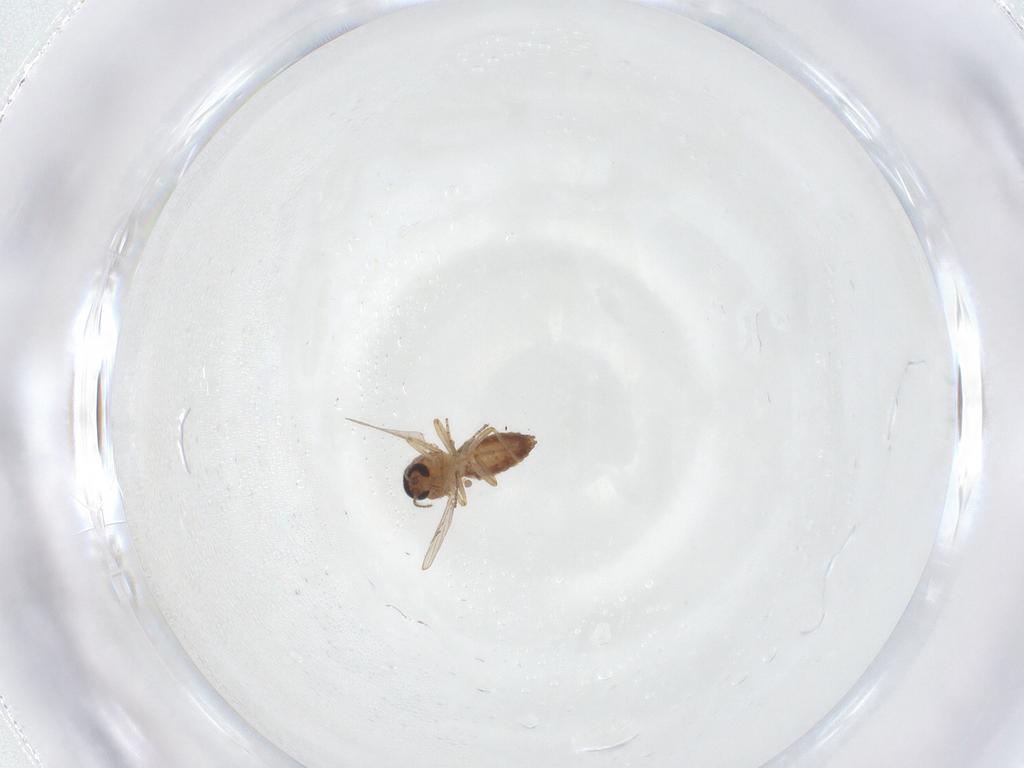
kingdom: Animalia
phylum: Arthropoda
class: Insecta
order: Diptera
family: Ceratopogonidae
